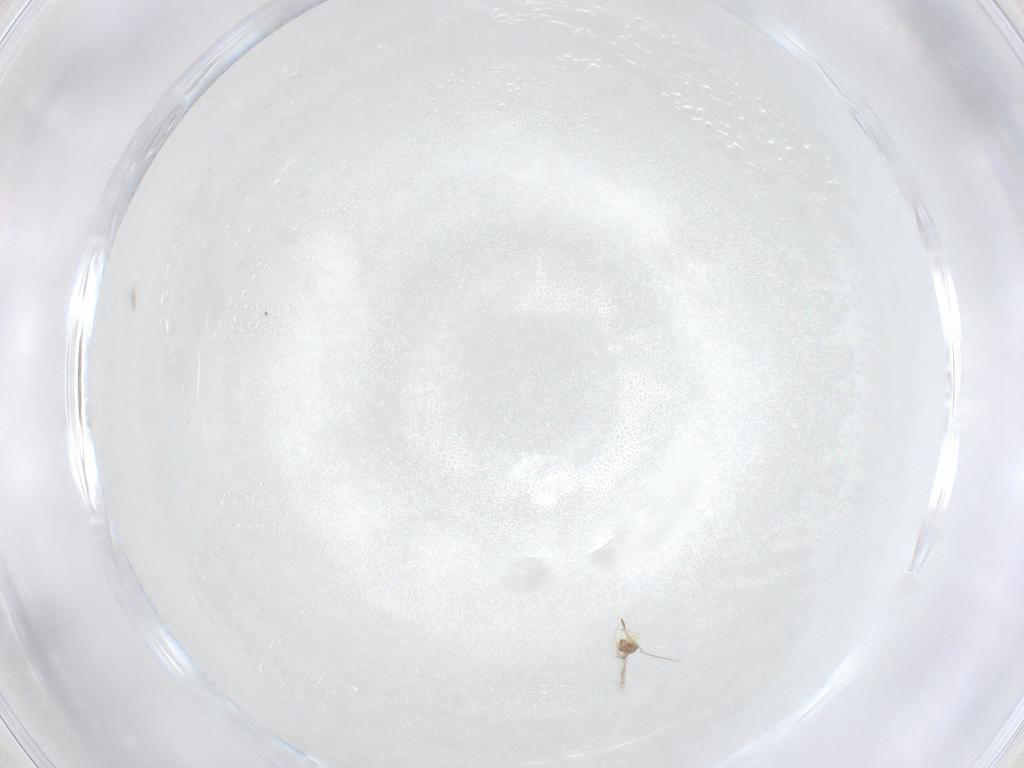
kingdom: Animalia
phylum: Arthropoda
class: Insecta
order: Hymenoptera
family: Mymaridae
